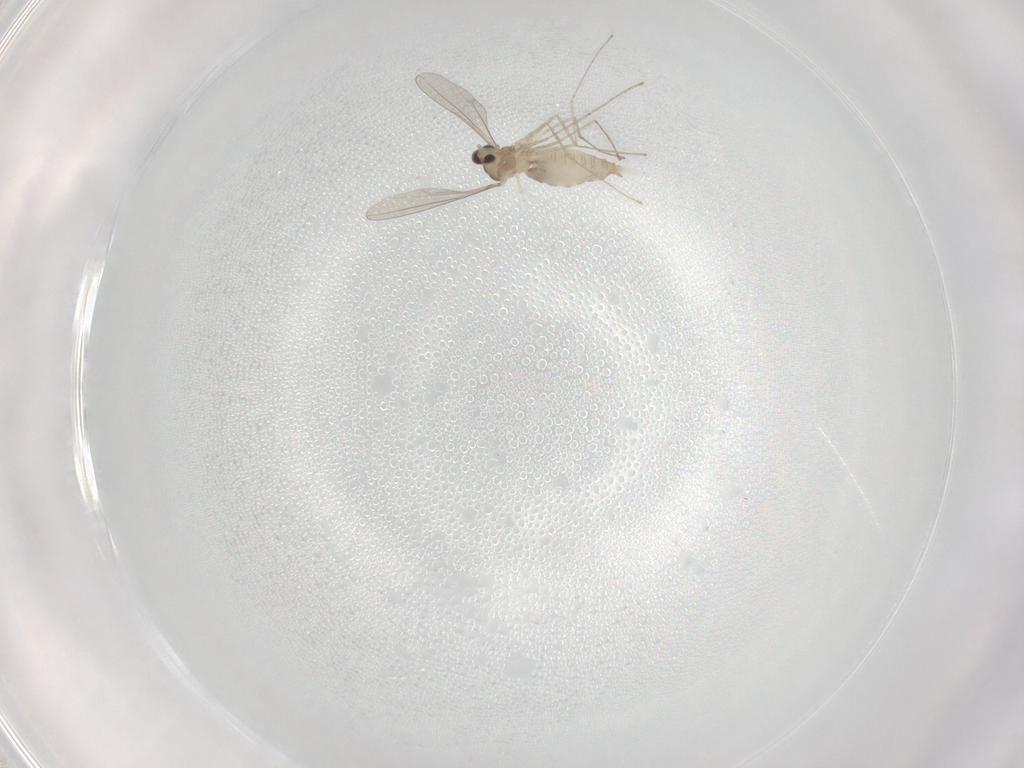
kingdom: Animalia
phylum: Arthropoda
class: Insecta
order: Diptera
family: Cecidomyiidae
